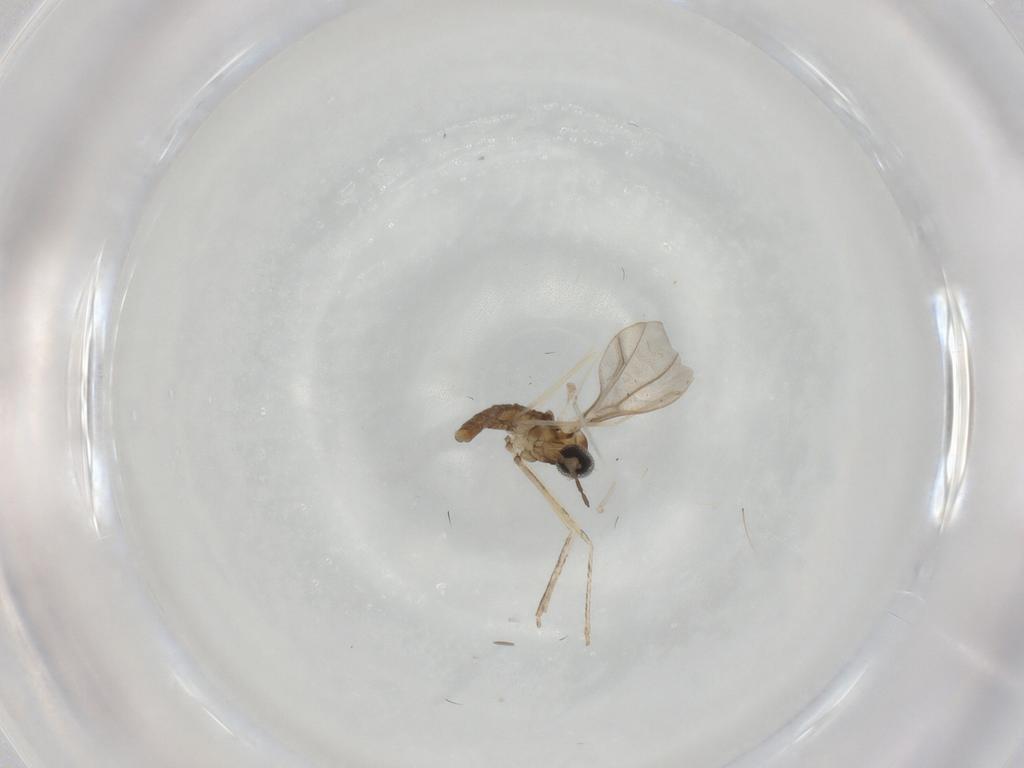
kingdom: Animalia
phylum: Arthropoda
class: Insecta
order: Diptera
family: Cecidomyiidae
